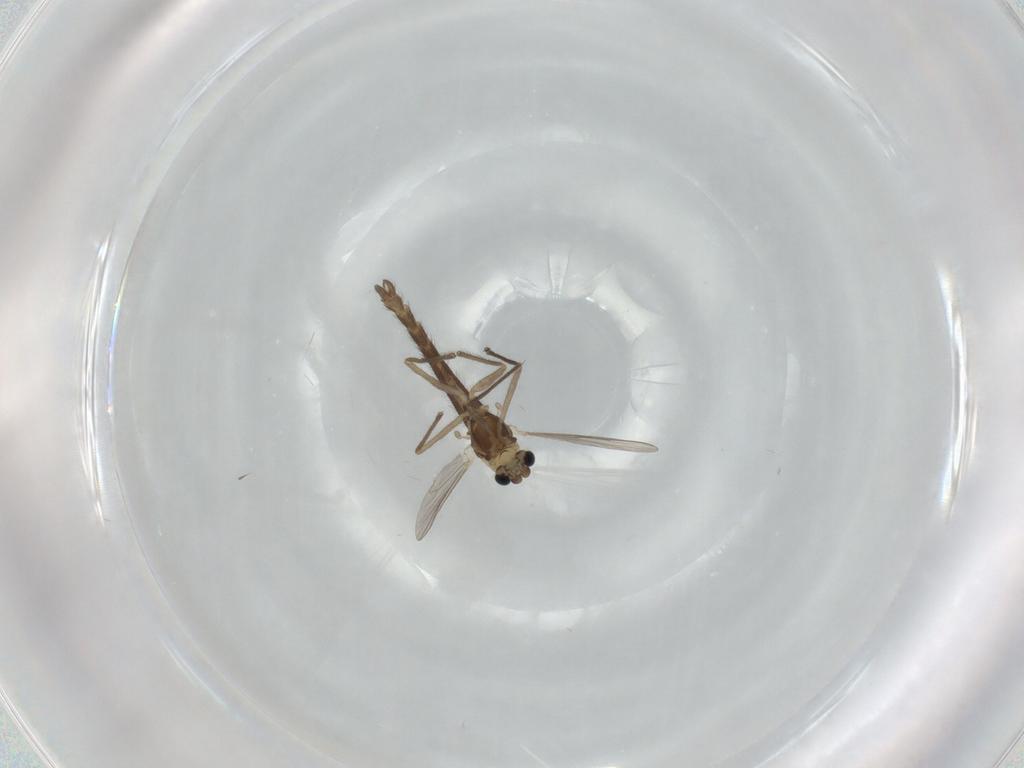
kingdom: Animalia
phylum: Arthropoda
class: Insecta
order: Diptera
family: Chironomidae
